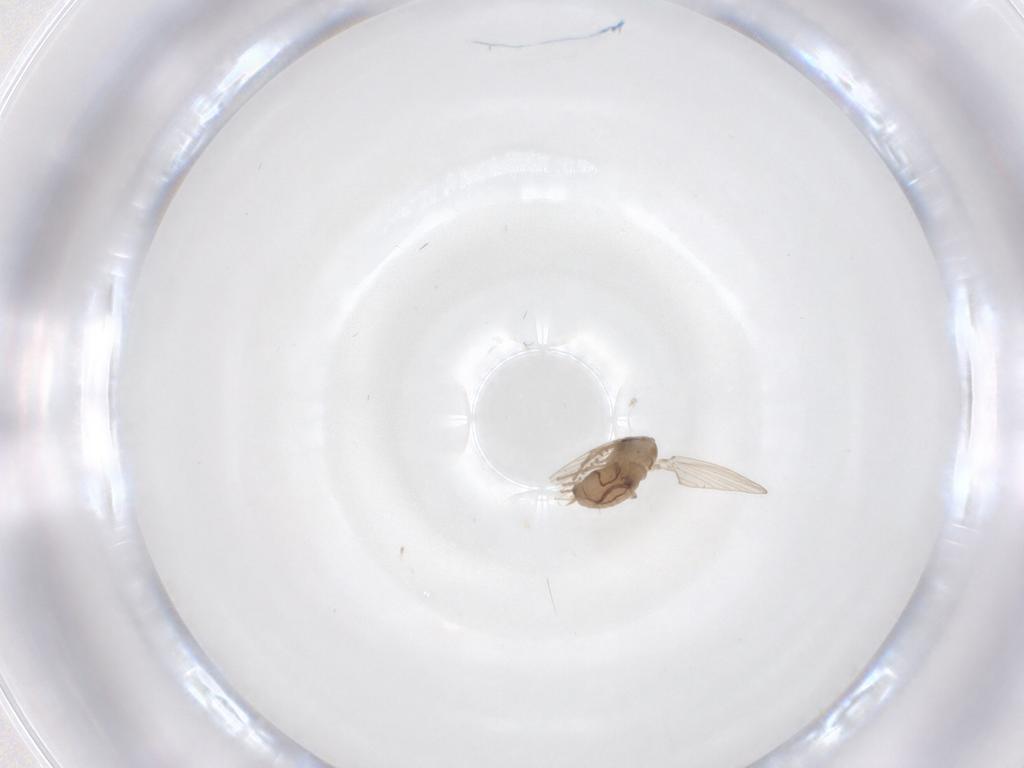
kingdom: Animalia
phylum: Arthropoda
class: Insecta
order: Diptera
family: Psychodidae
